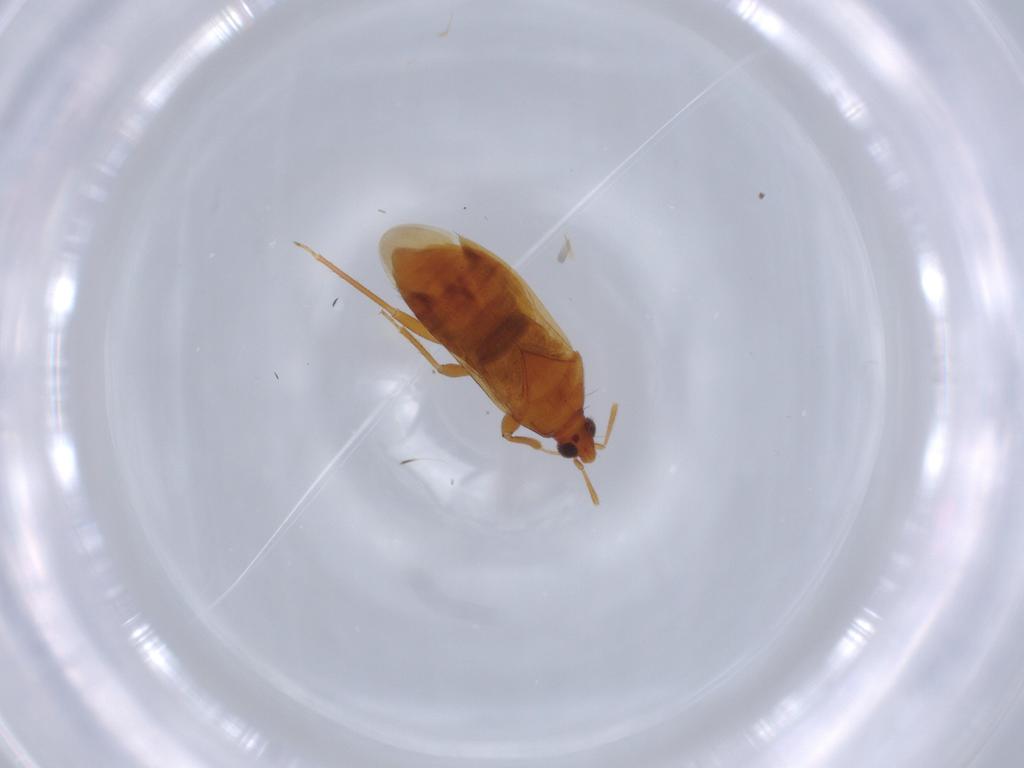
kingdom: Animalia
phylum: Arthropoda
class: Insecta
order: Hemiptera
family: Anthocoridae
